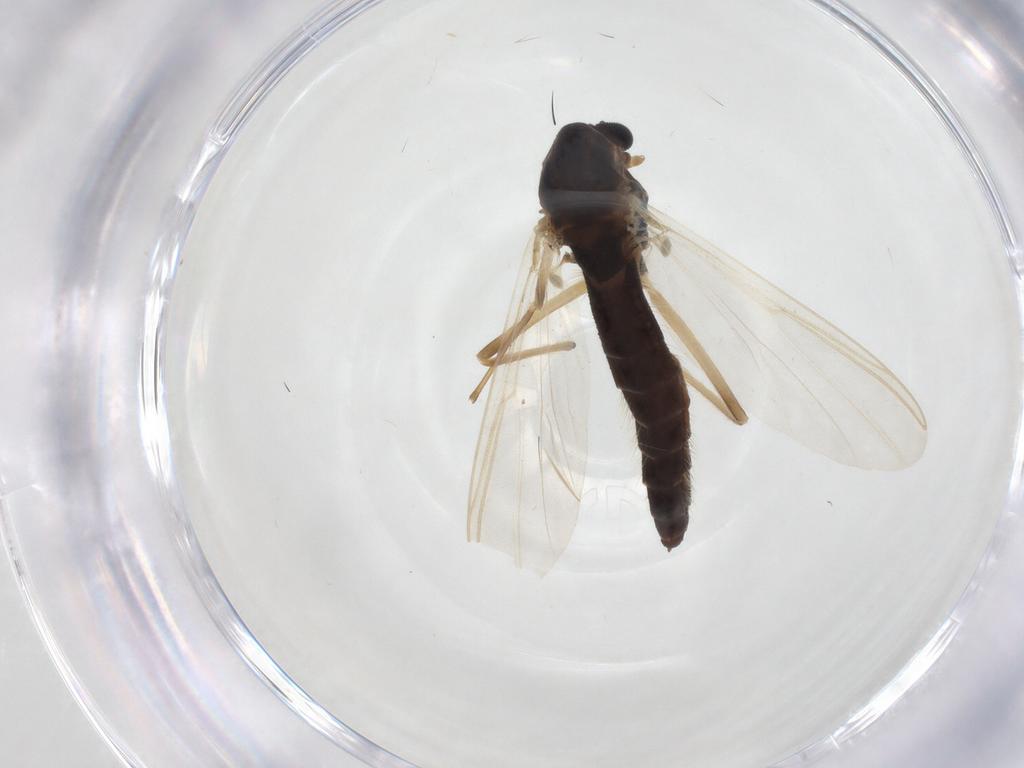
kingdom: Animalia
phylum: Arthropoda
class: Insecta
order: Diptera
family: Chironomidae
